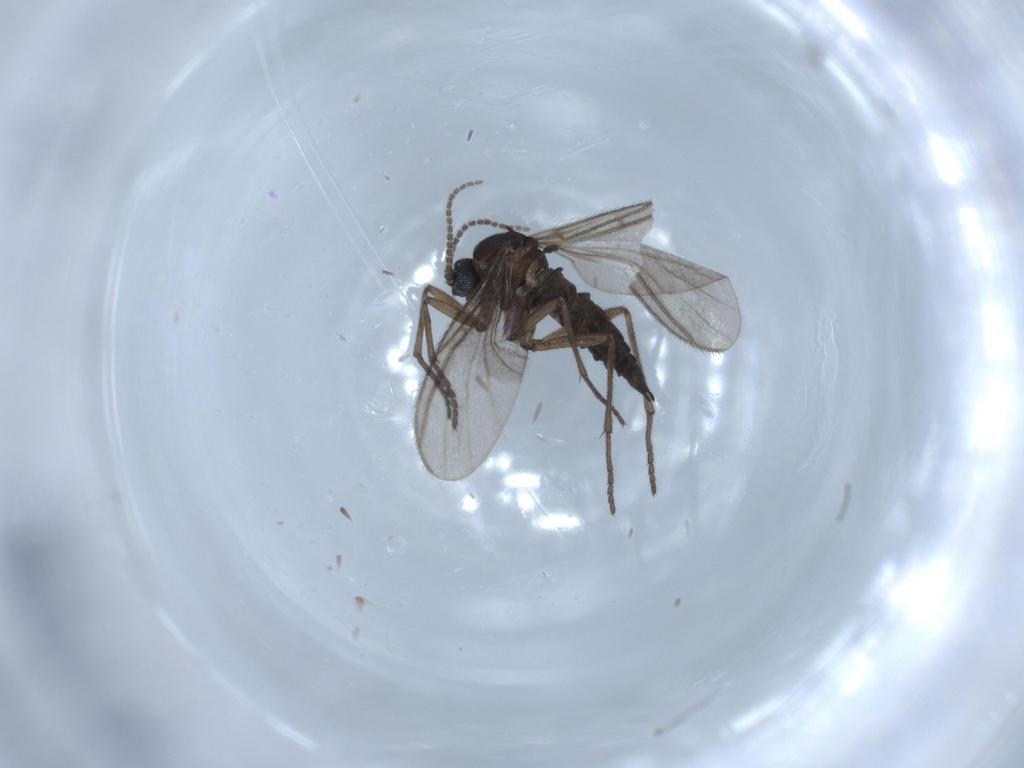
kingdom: Animalia
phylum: Arthropoda
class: Insecta
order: Diptera
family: Sciaridae
